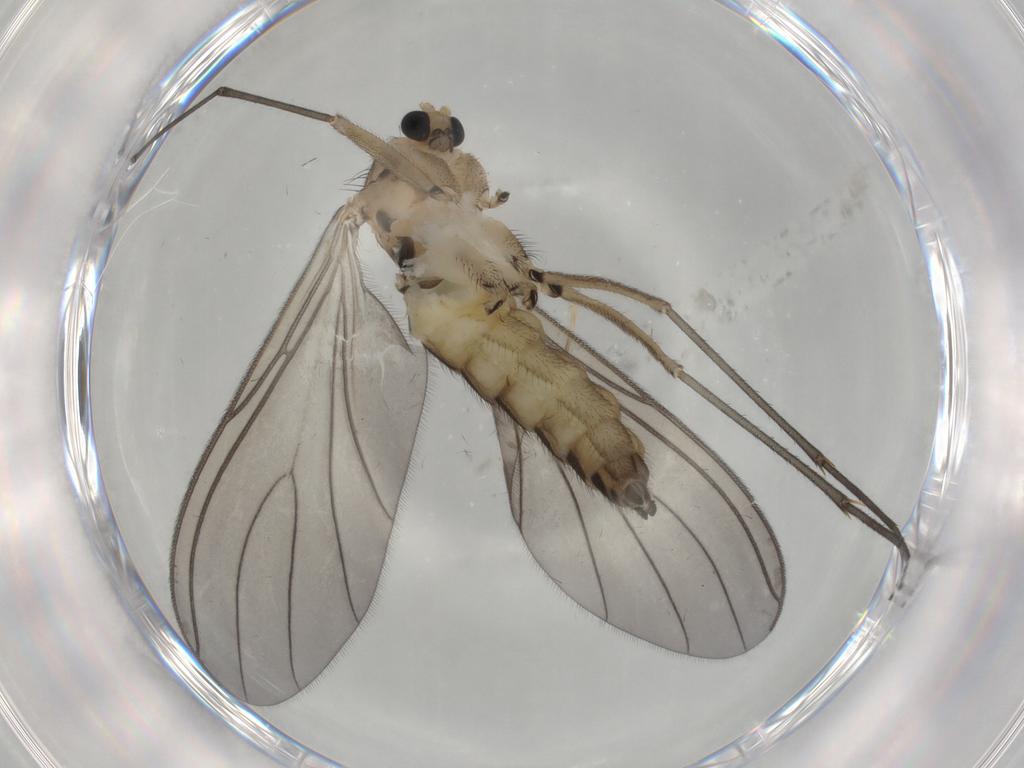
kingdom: Animalia
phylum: Arthropoda
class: Insecta
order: Diptera
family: Sciaridae
